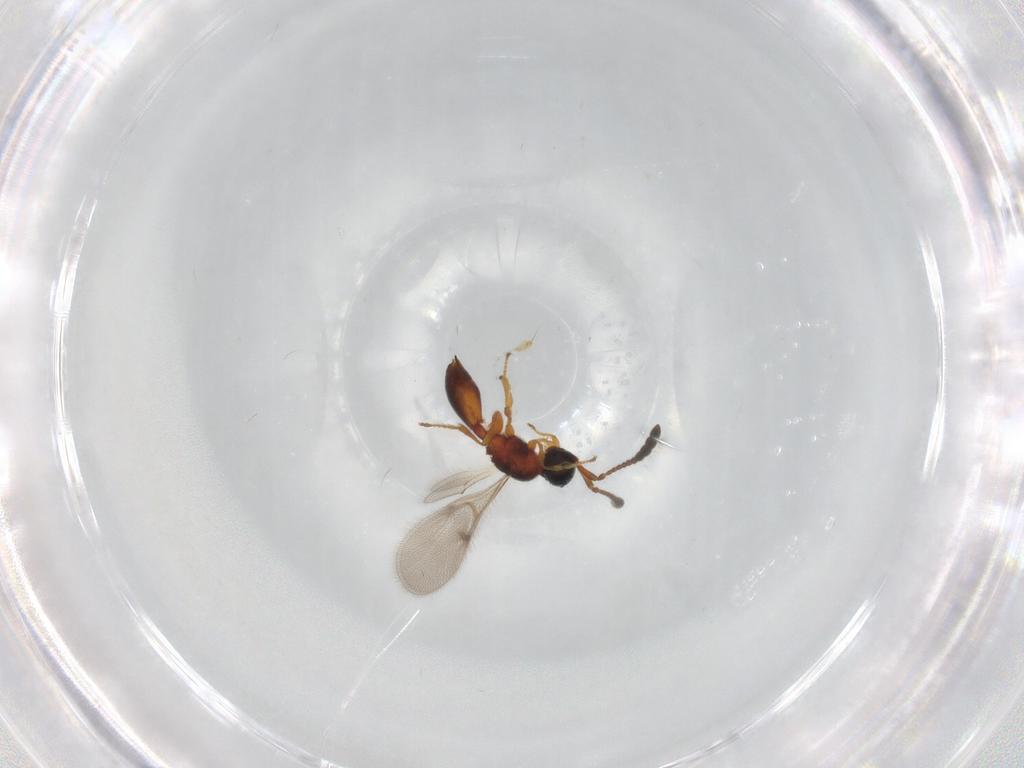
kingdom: Animalia
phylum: Arthropoda
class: Insecta
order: Hymenoptera
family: Diapriidae
